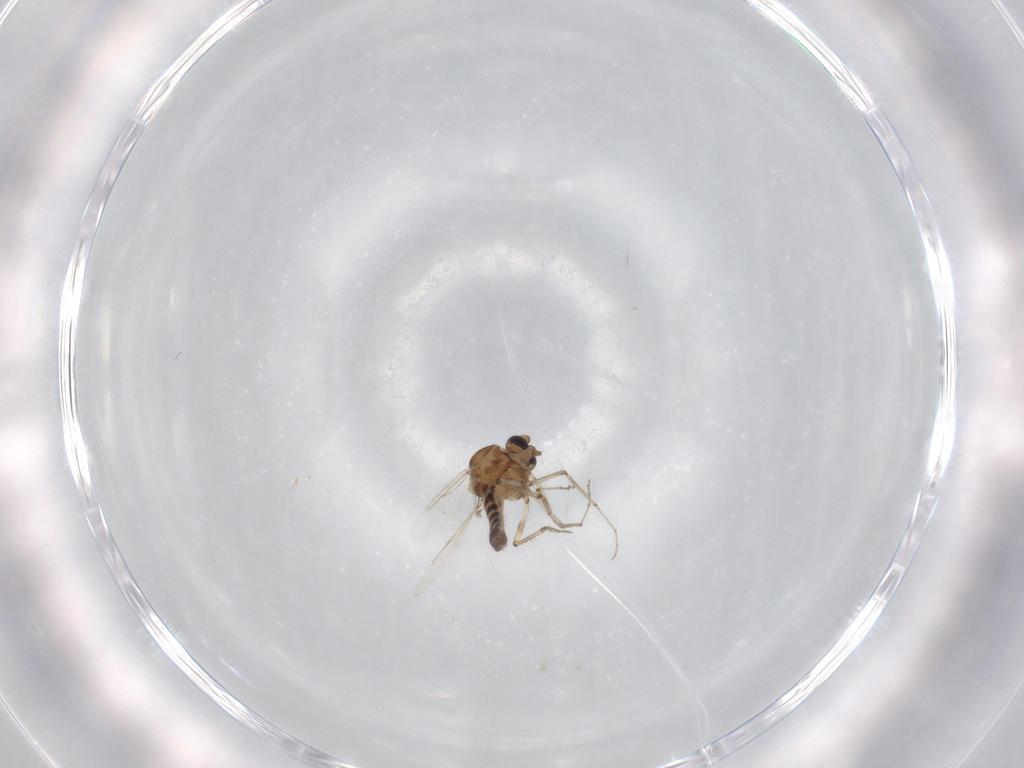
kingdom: Animalia
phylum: Arthropoda
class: Insecta
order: Diptera
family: Ceratopogonidae
